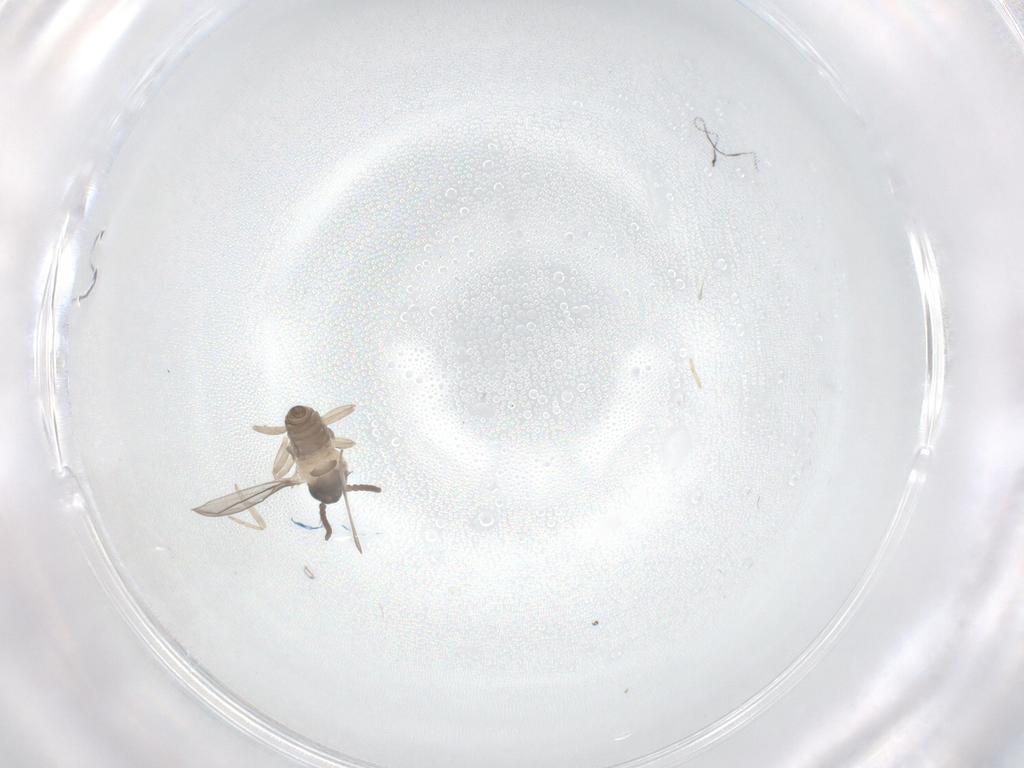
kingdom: Animalia
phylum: Arthropoda
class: Insecta
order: Diptera
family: Cecidomyiidae
